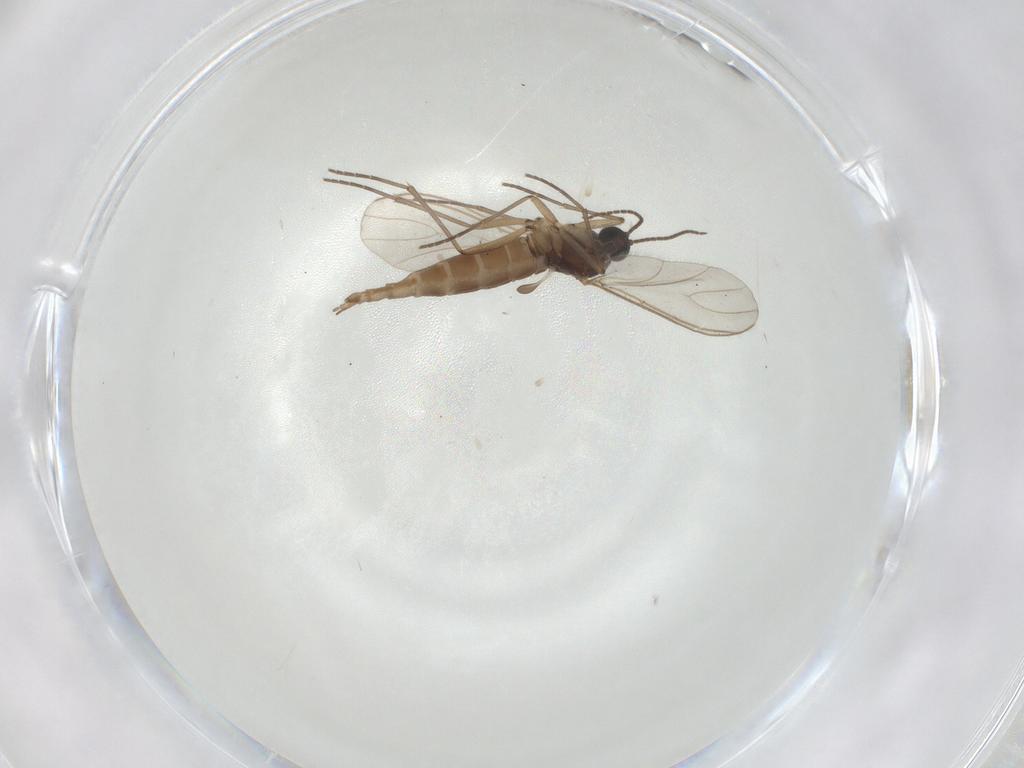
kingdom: Animalia
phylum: Arthropoda
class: Insecta
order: Diptera
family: Sciaridae
